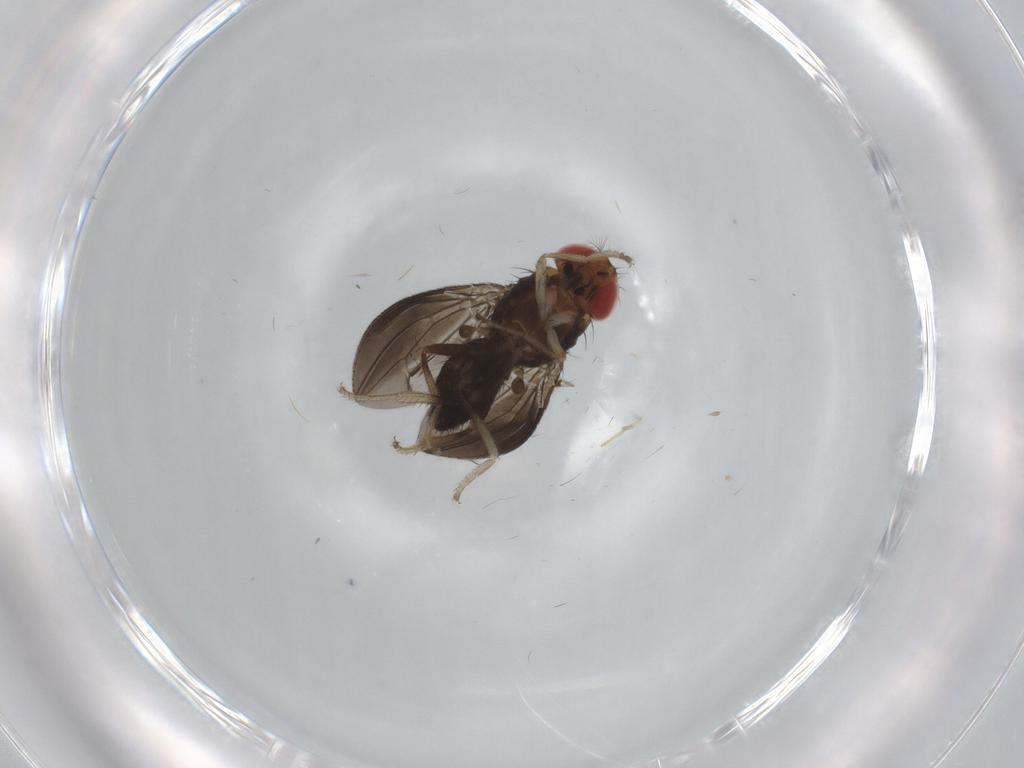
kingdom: Animalia
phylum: Arthropoda
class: Insecta
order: Diptera
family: Drosophilidae
